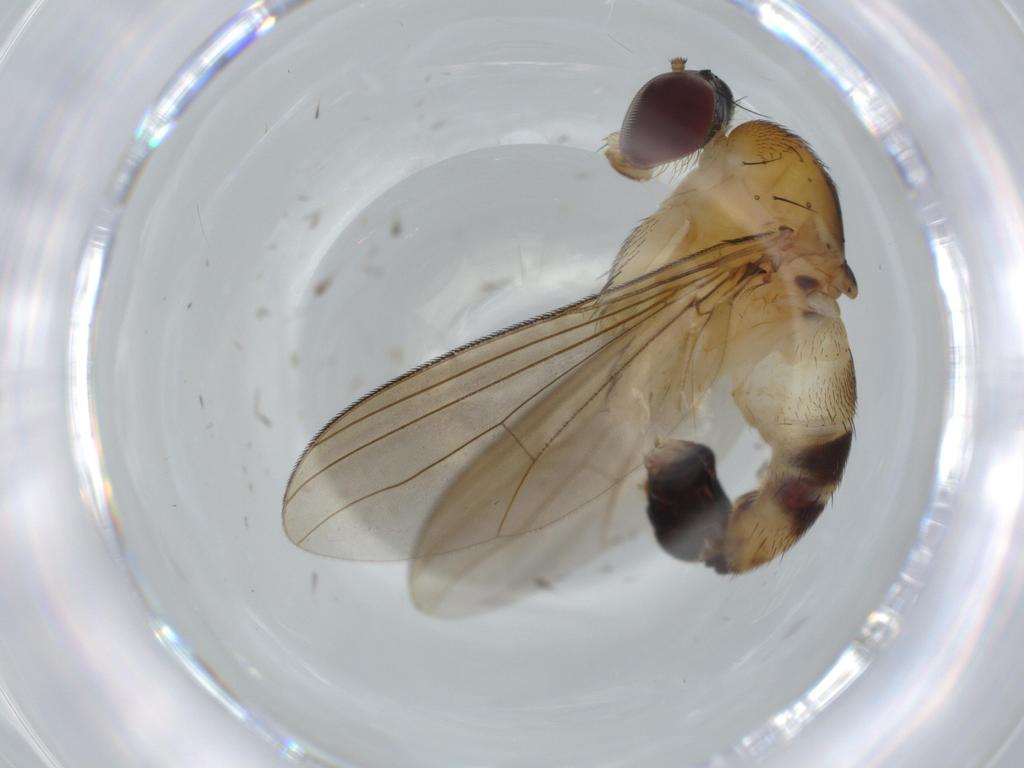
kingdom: Animalia
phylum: Arthropoda
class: Insecta
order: Diptera
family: Dolichopodidae
